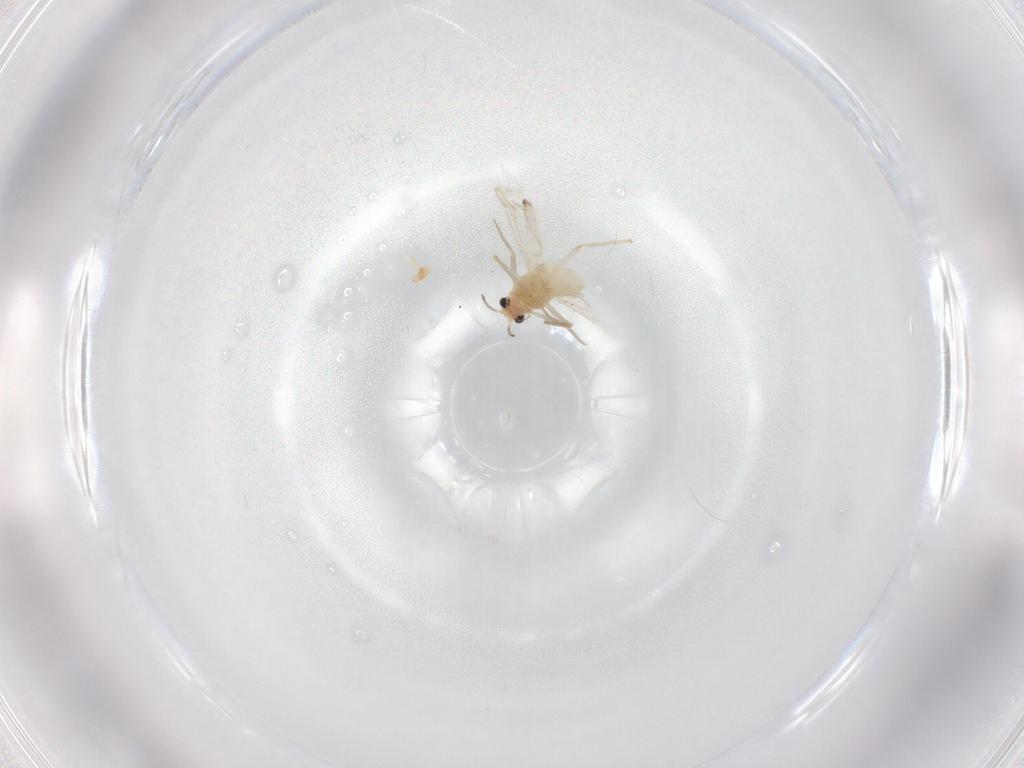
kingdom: Animalia
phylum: Arthropoda
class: Insecta
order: Diptera
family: Chironomidae
